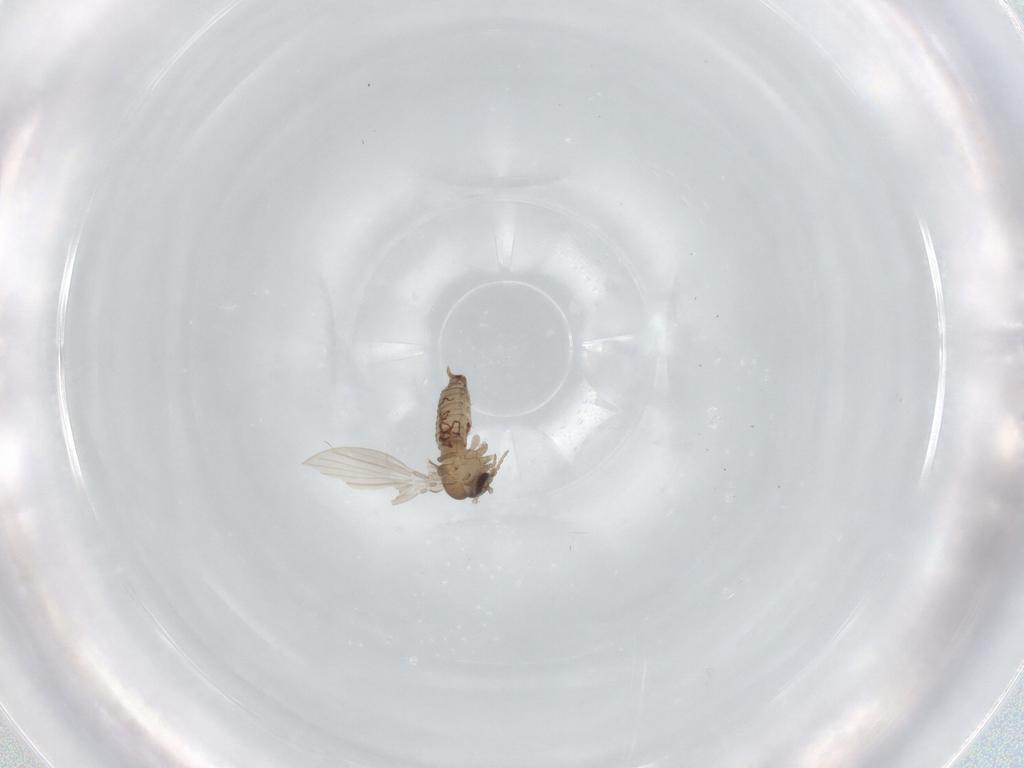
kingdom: Animalia
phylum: Arthropoda
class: Insecta
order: Diptera
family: Psychodidae
